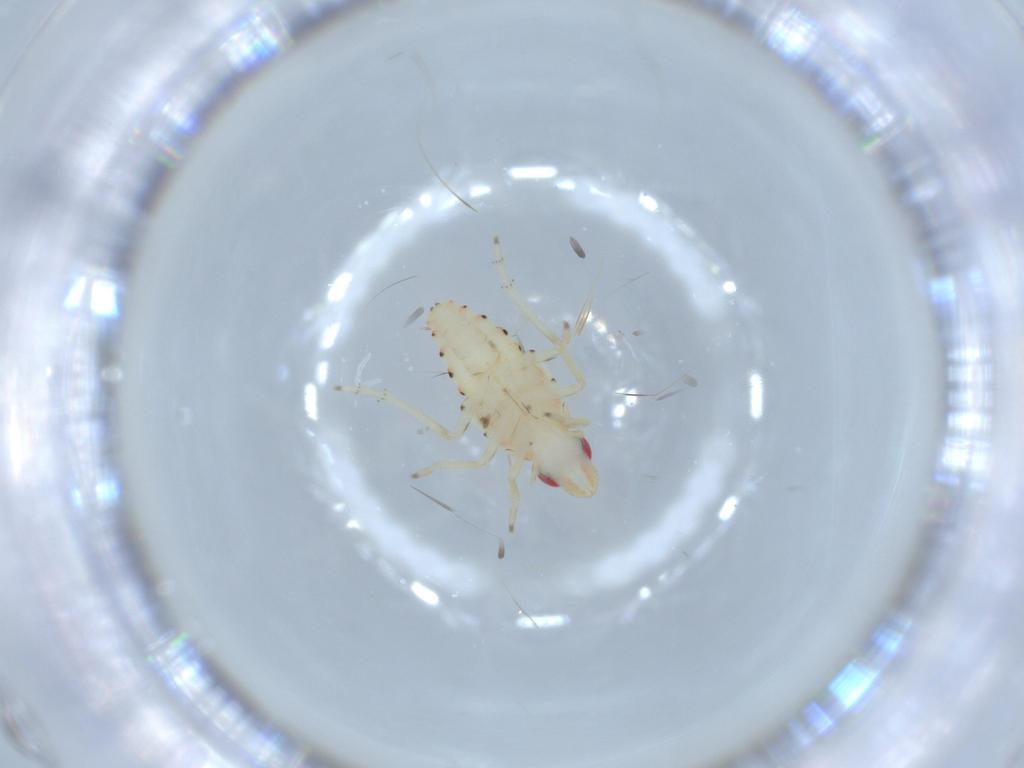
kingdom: Animalia
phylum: Arthropoda
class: Insecta
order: Hemiptera
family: Tropiduchidae
